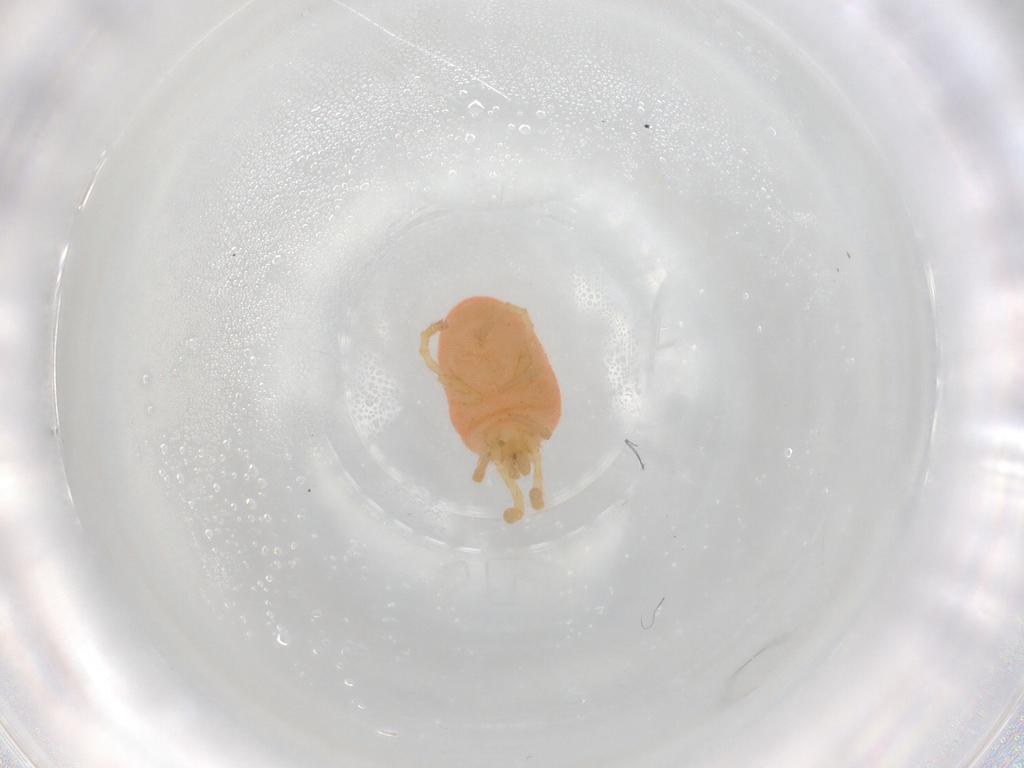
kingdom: Animalia
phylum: Arthropoda
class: Arachnida
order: Trombidiformes
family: Trombidiidae
